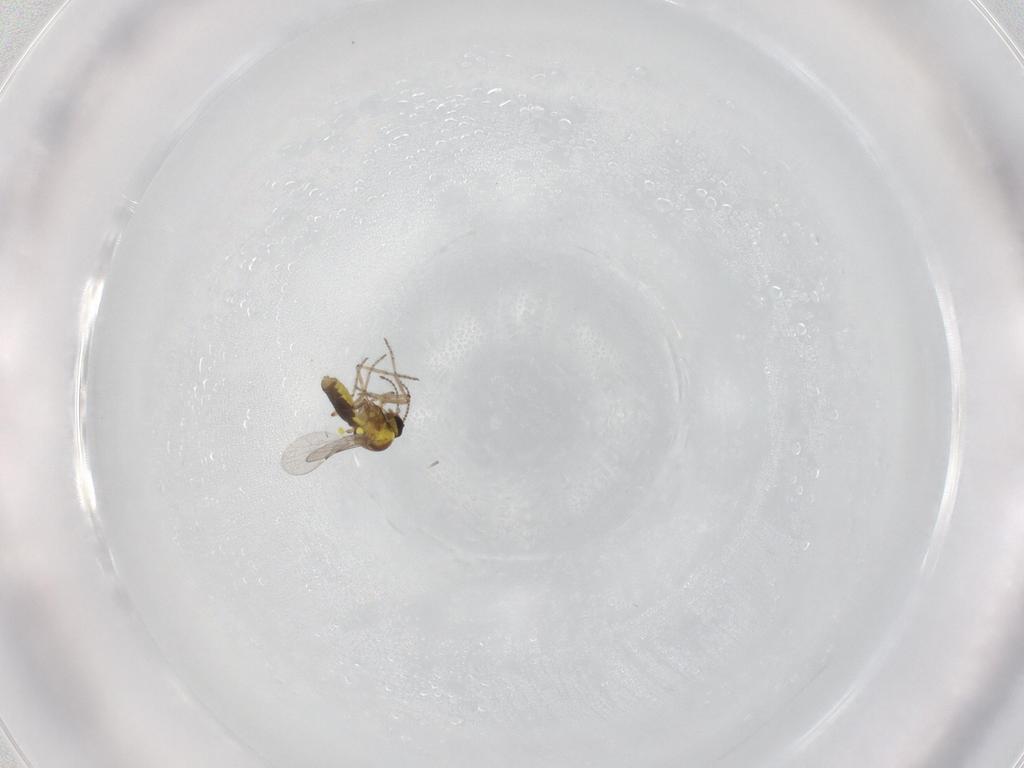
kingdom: Animalia
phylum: Arthropoda
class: Insecta
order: Diptera
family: Ceratopogonidae
